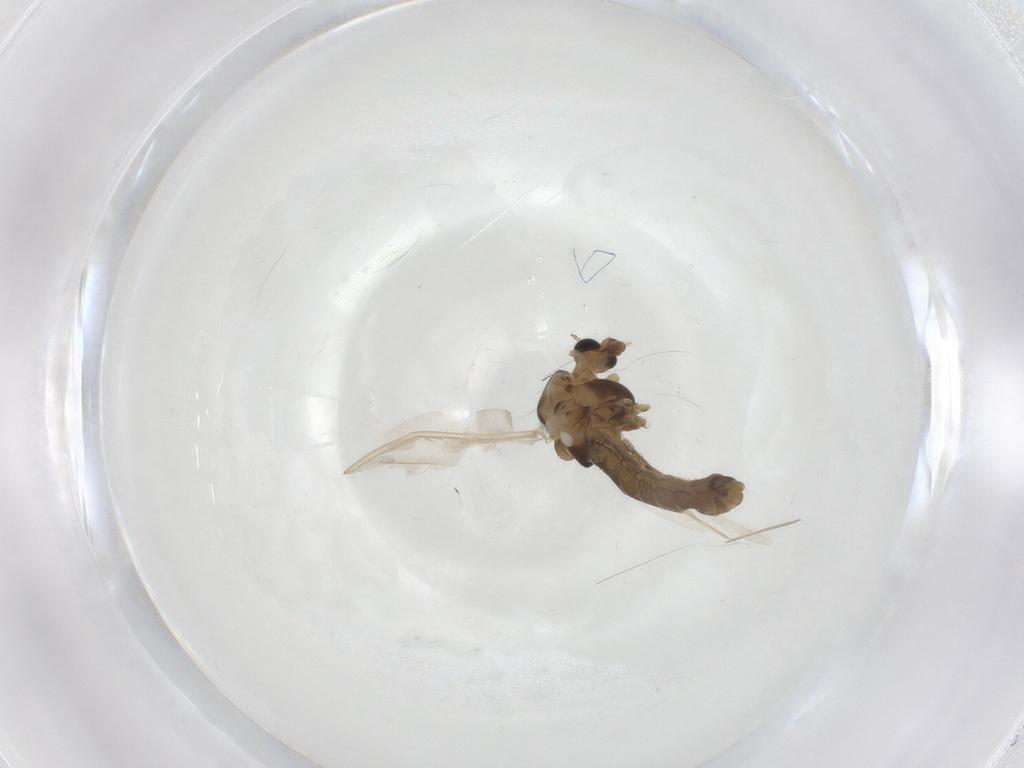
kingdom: Animalia
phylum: Arthropoda
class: Insecta
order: Diptera
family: Chironomidae
